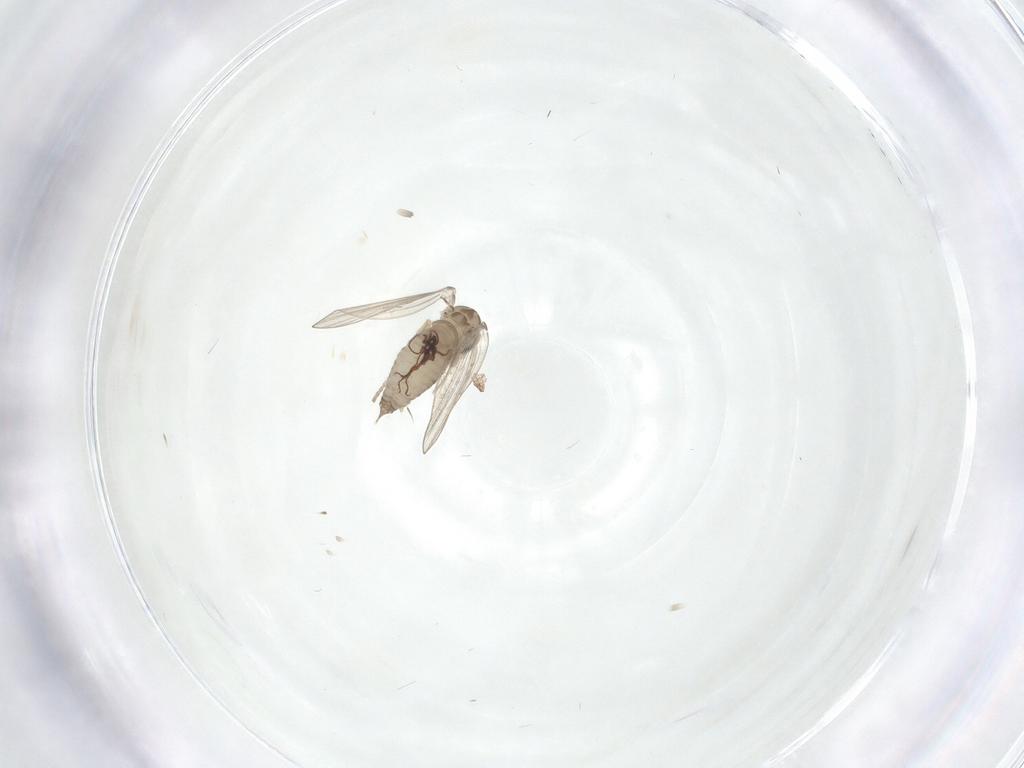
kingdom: Animalia
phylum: Arthropoda
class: Insecta
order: Diptera
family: Psychodidae
